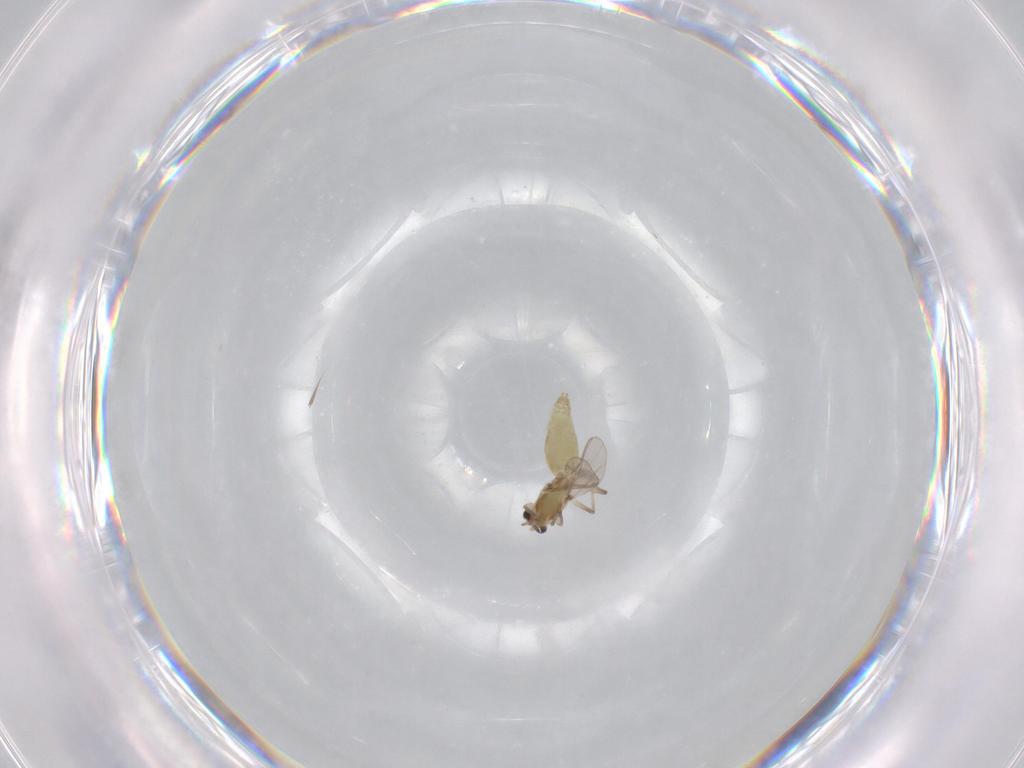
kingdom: Animalia
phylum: Arthropoda
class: Insecta
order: Diptera
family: Chironomidae
